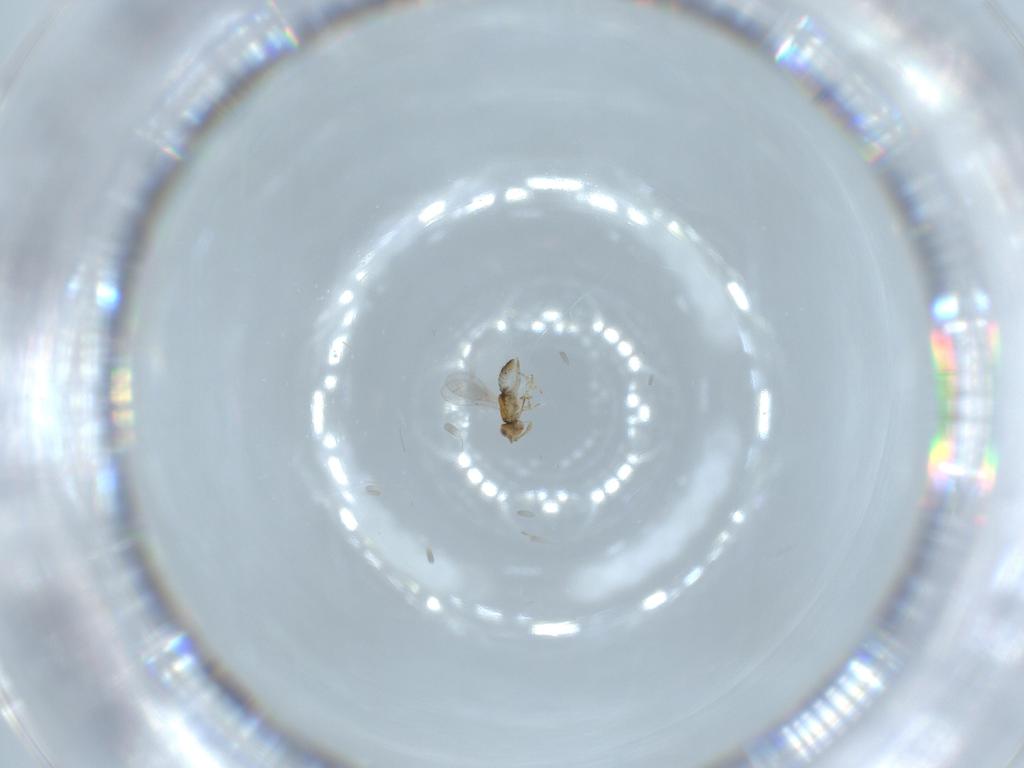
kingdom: Animalia
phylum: Arthropoda
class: Insecta
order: Hymenoptera
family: Encyrtidae
